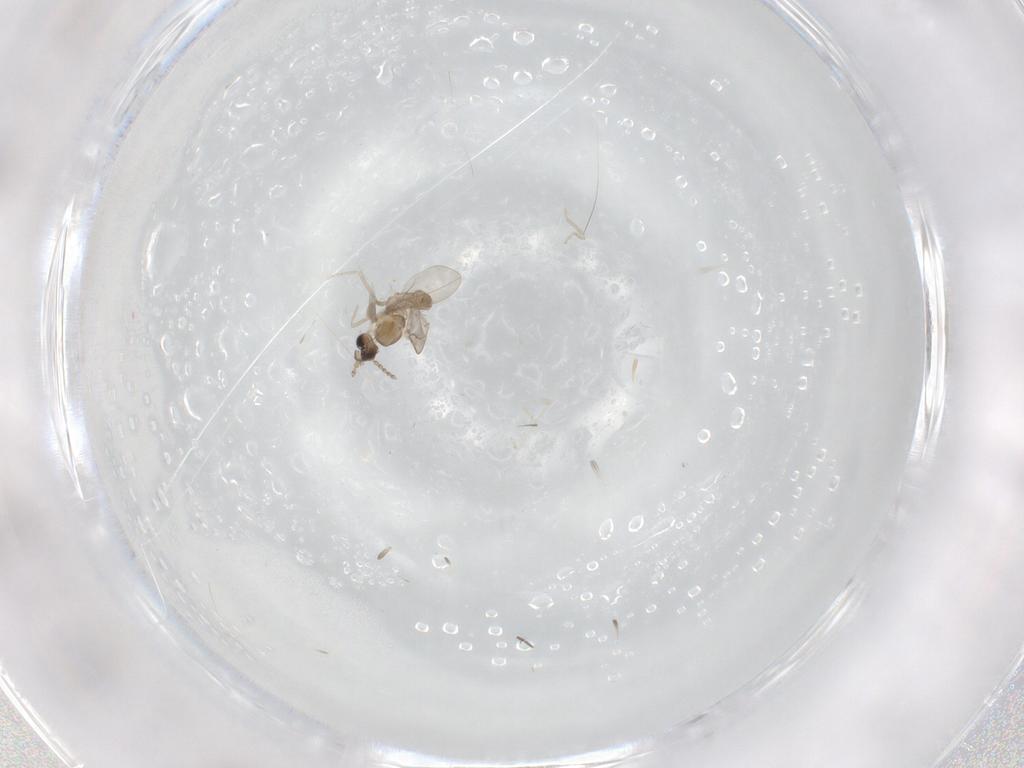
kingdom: Animalia
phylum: Arthropoda
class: Insecta
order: Diptera
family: Sciaridae
